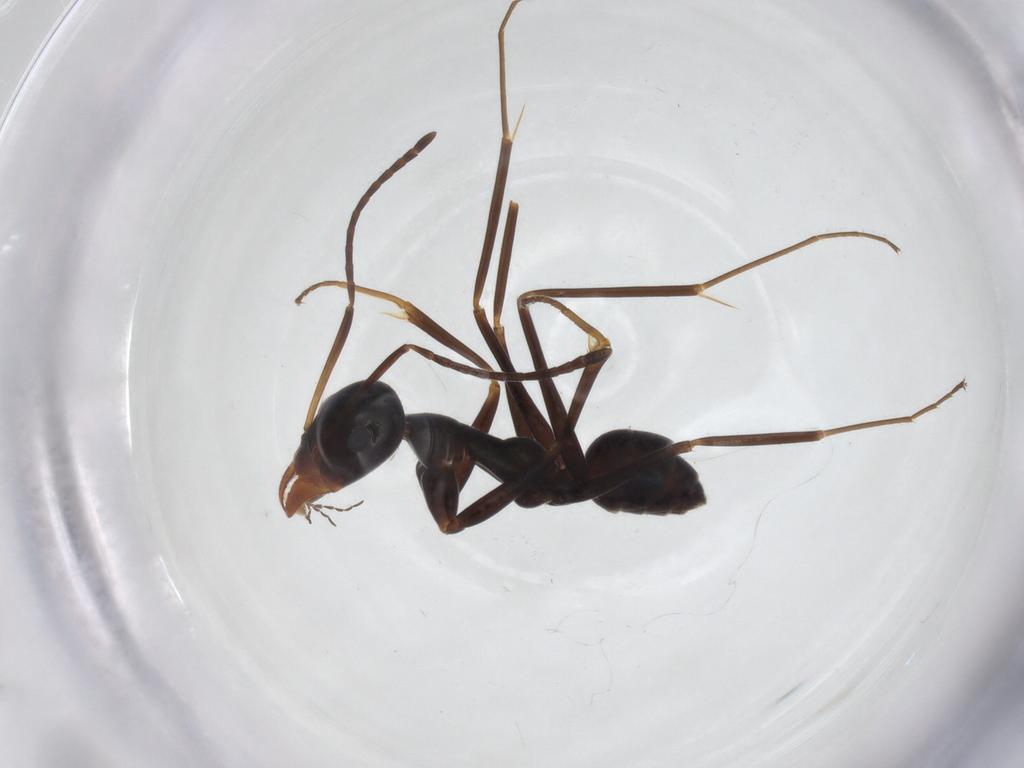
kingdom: Animalia
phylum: Arthropoda
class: Insecta
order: Hymenoptera
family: Formicidae
